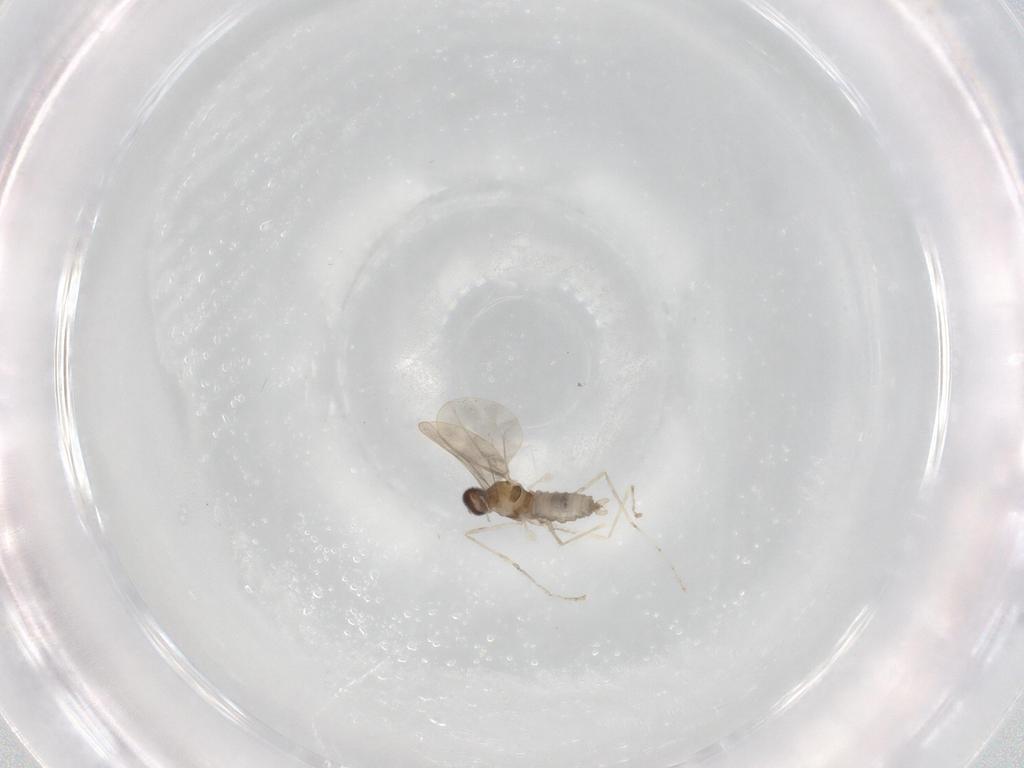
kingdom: Animalia
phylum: Arthropoda
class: Insecta
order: Diptera
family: Cecidomyiidae
